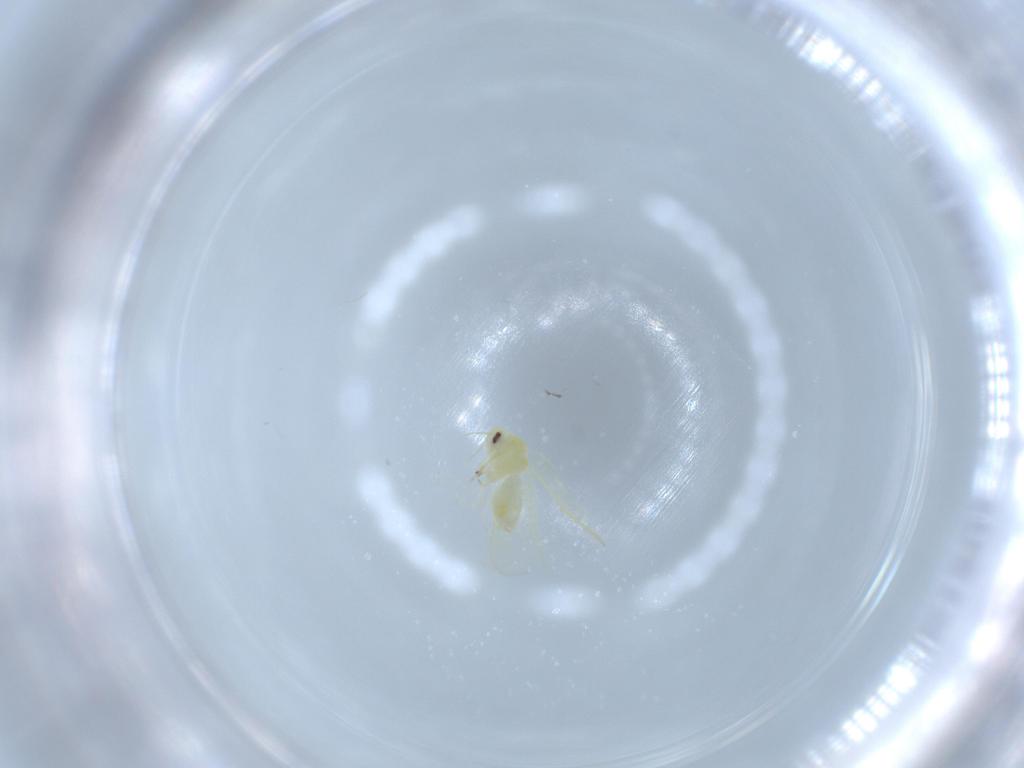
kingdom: Animalia
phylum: Arthropoda
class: Insecta
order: Hemiptera
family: Aleyrodidae
